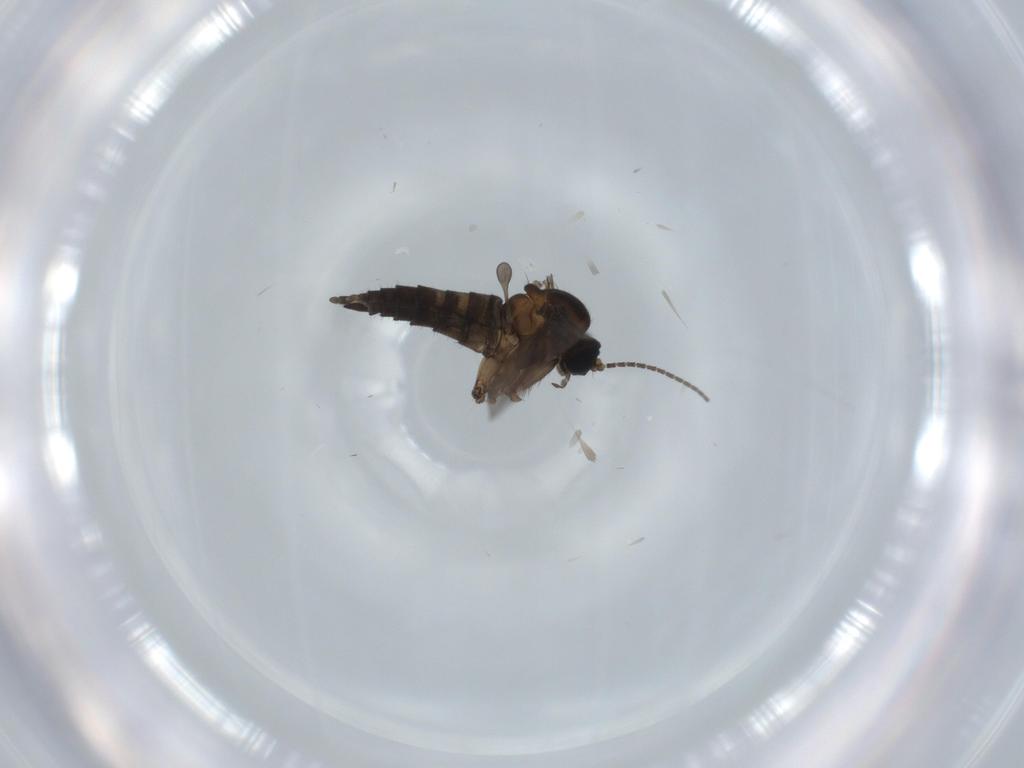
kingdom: Animalia
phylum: Arthropoda
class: Insecta
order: Diptera
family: Sciaridae
